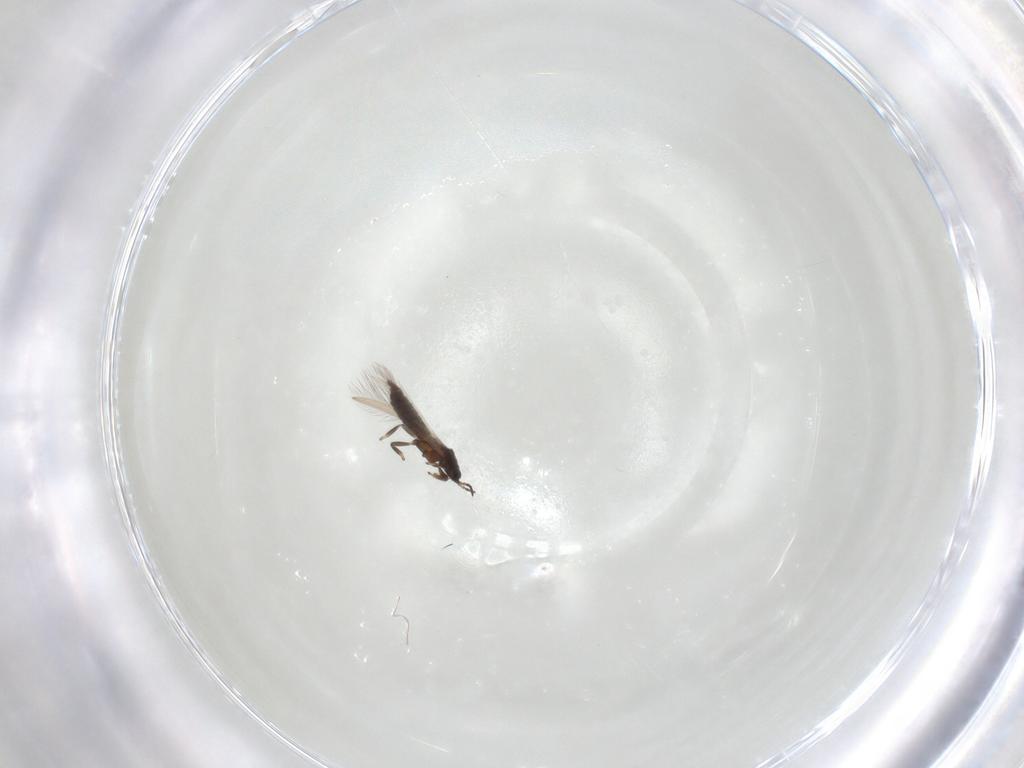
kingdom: Animalia
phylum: Arthropoda
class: Insecta
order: Thysanoptera
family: Heterothripidae
